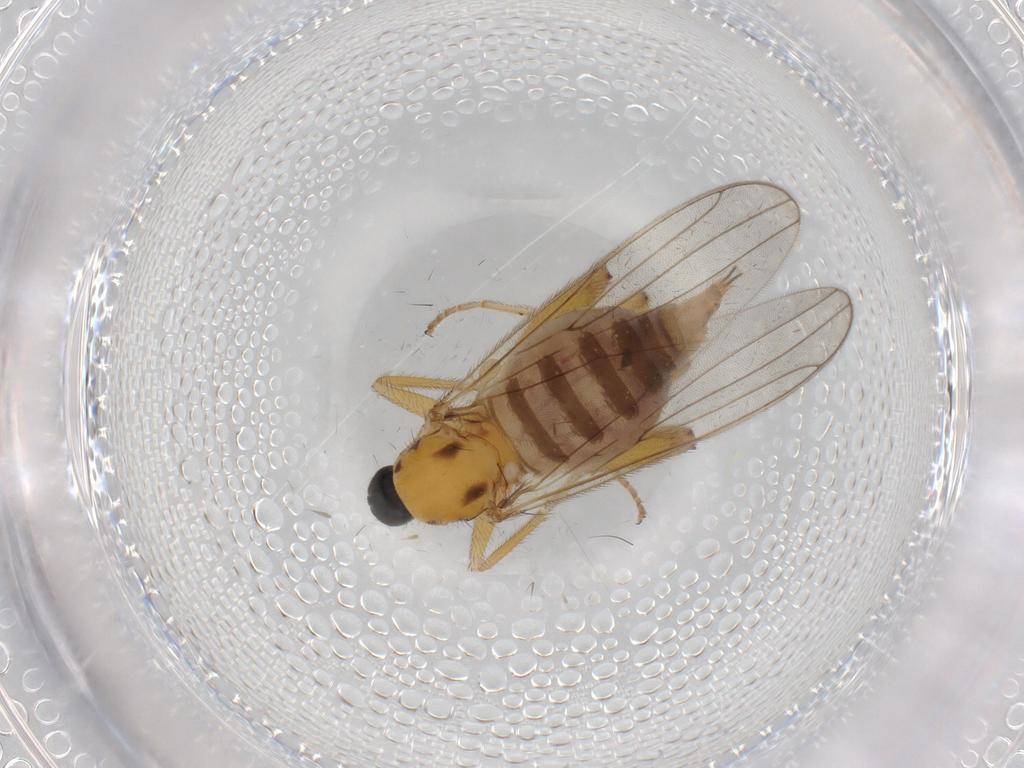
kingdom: Animalia
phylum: Arthropoda
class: Insecta
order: Diptera
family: Hybotidae
